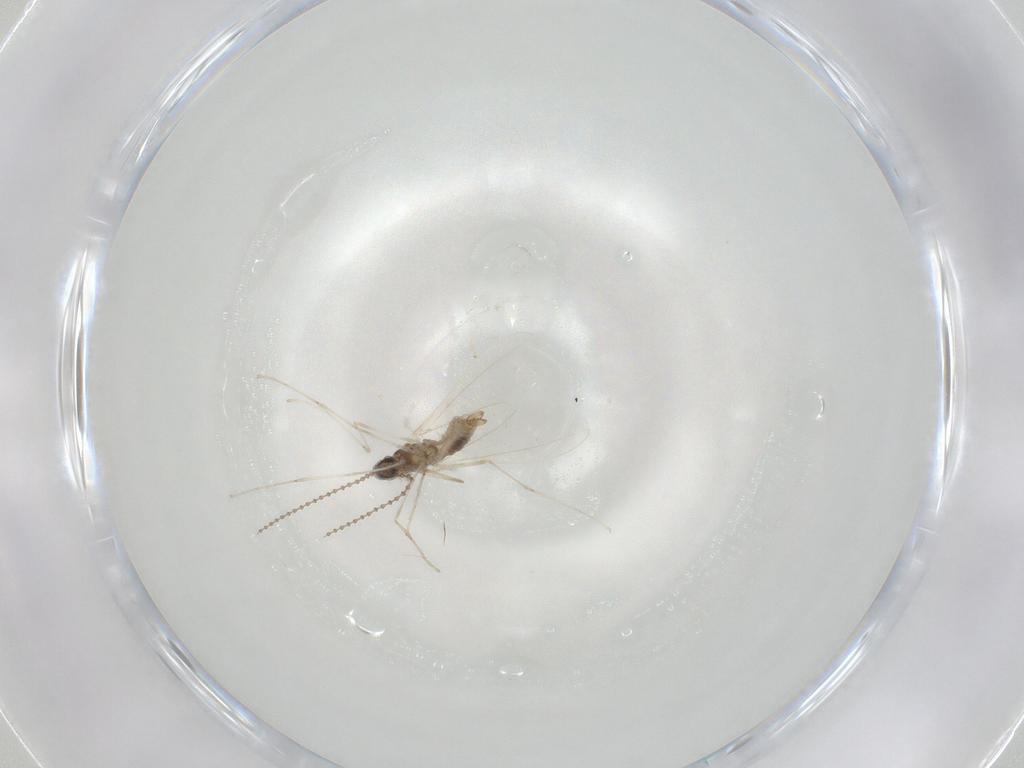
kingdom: Animalia
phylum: Arthropoda
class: Insecta
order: Diptera
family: Cecidomyiidae
